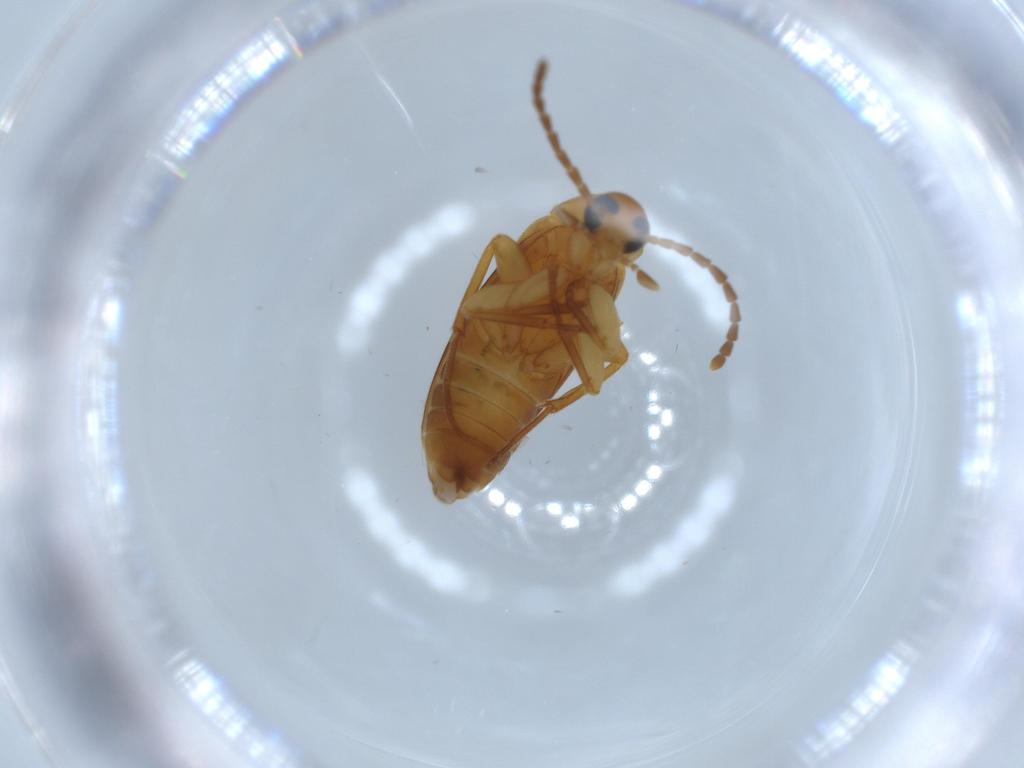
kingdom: Animalia
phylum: Arthropoda
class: Insecta
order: Coleoptera
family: Scraptiidae
